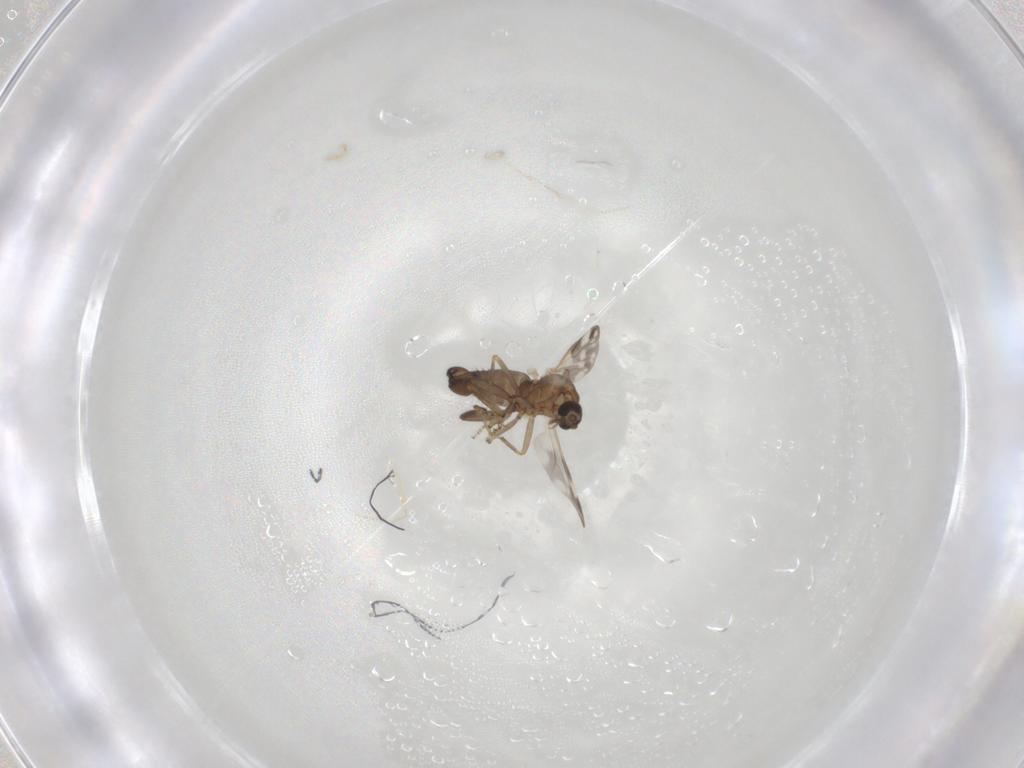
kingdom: Animalia
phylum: Arthropoda
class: Insecta
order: Diptera
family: Ceratopogonidae
